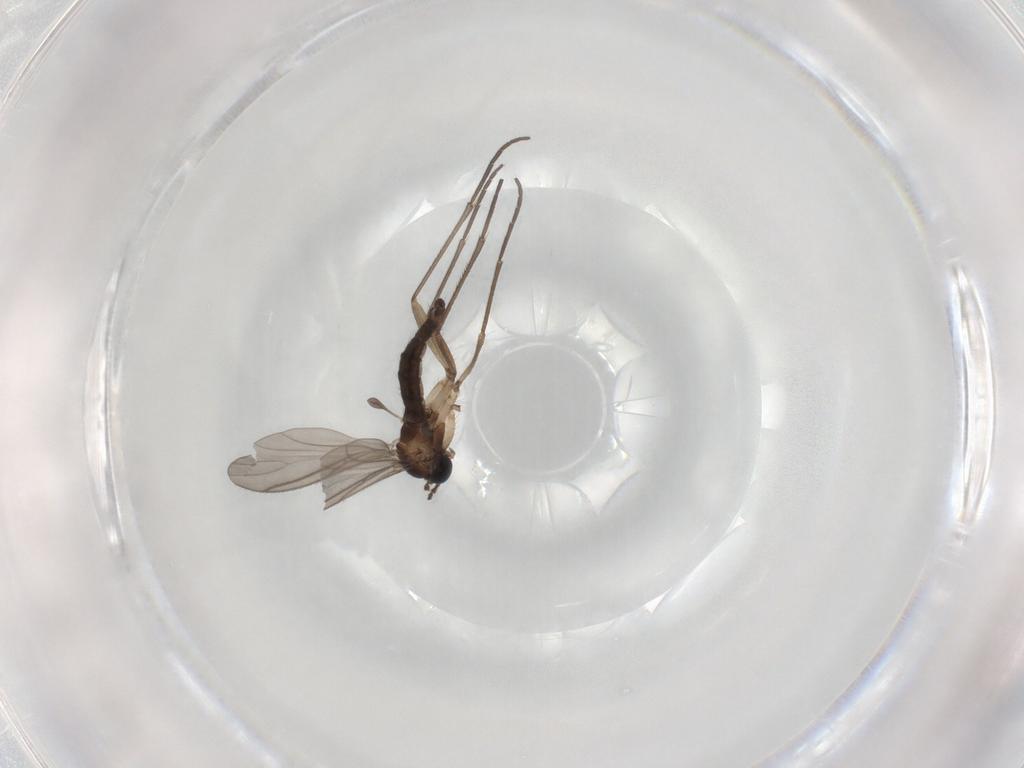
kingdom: Animalia
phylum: Arthropoda
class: Insecta
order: Diptera
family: Sciaridae
